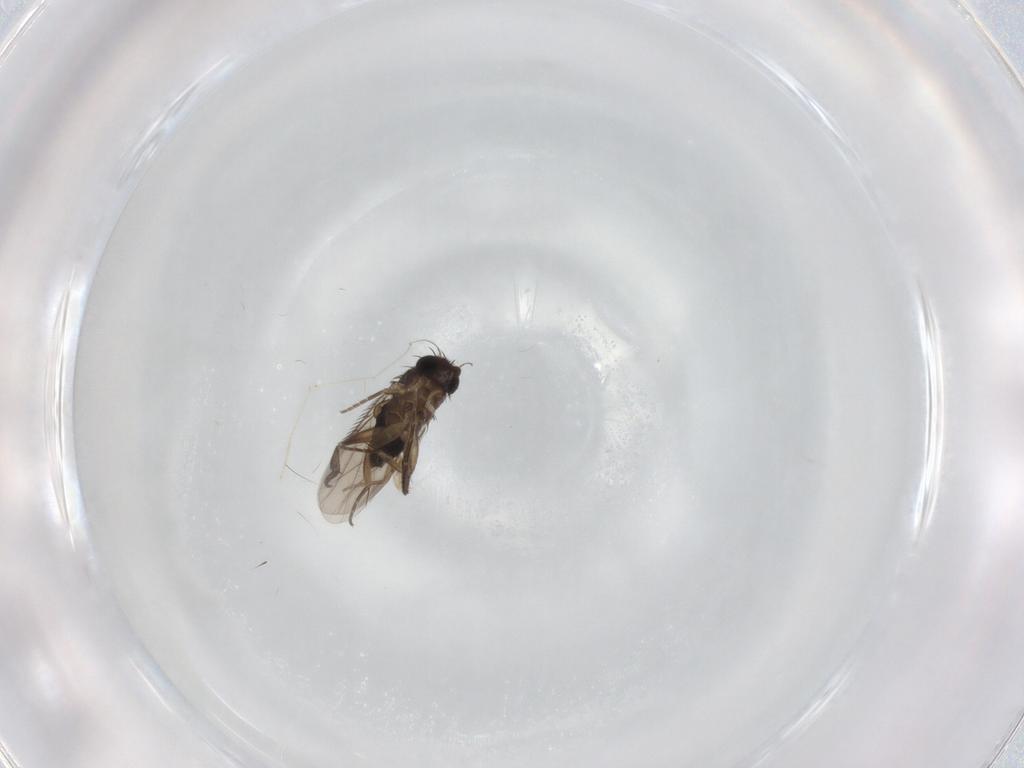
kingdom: Animalia
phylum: Arthropoda
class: Insecta
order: Diptera
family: Phoridae
